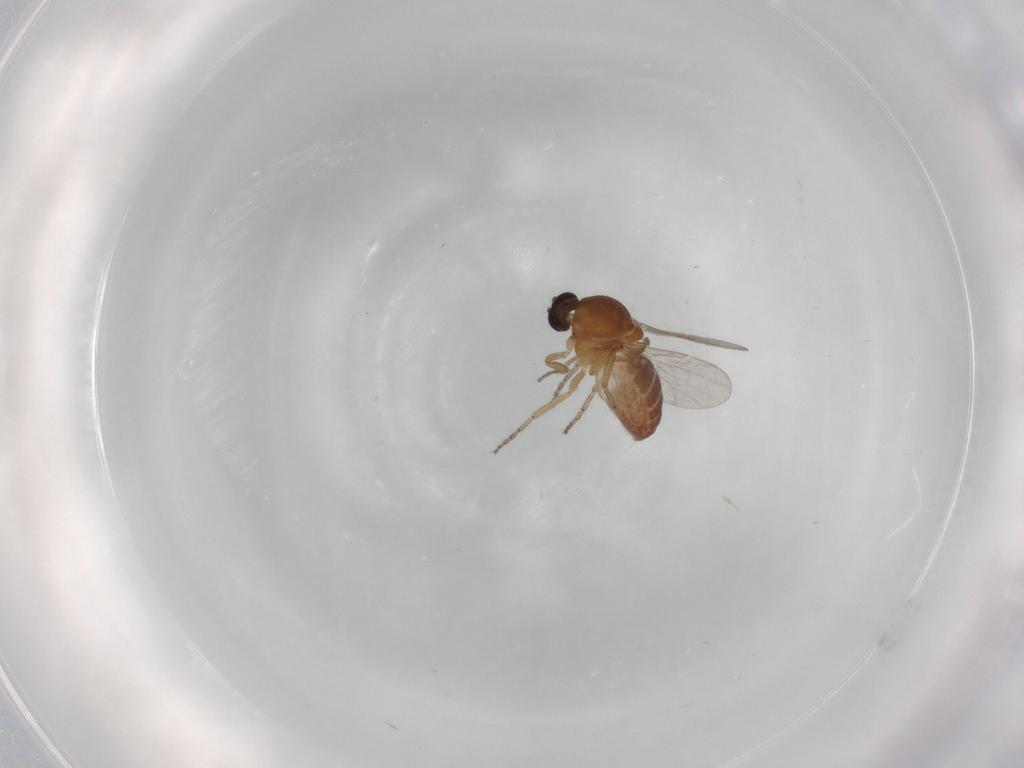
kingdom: Animalia
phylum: Arthropoda
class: Insecta
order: Diptera
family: Ceratopogonidae
